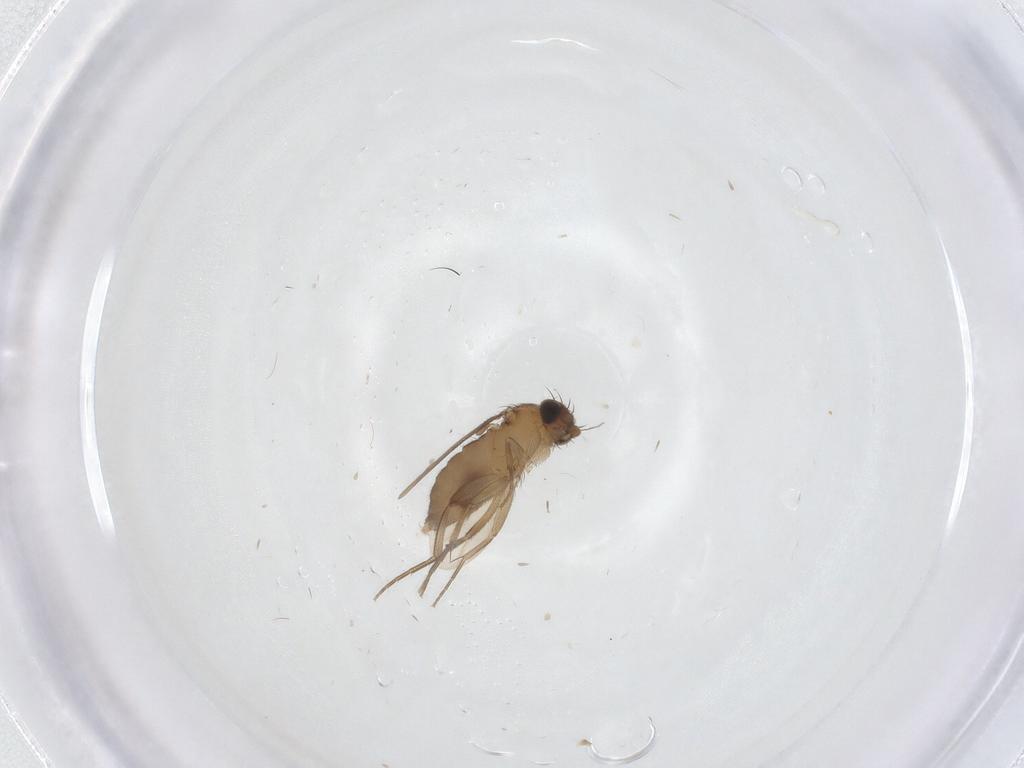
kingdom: Animalia
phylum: Arthropoda
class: Insecta
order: Diptera
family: Phoridae
